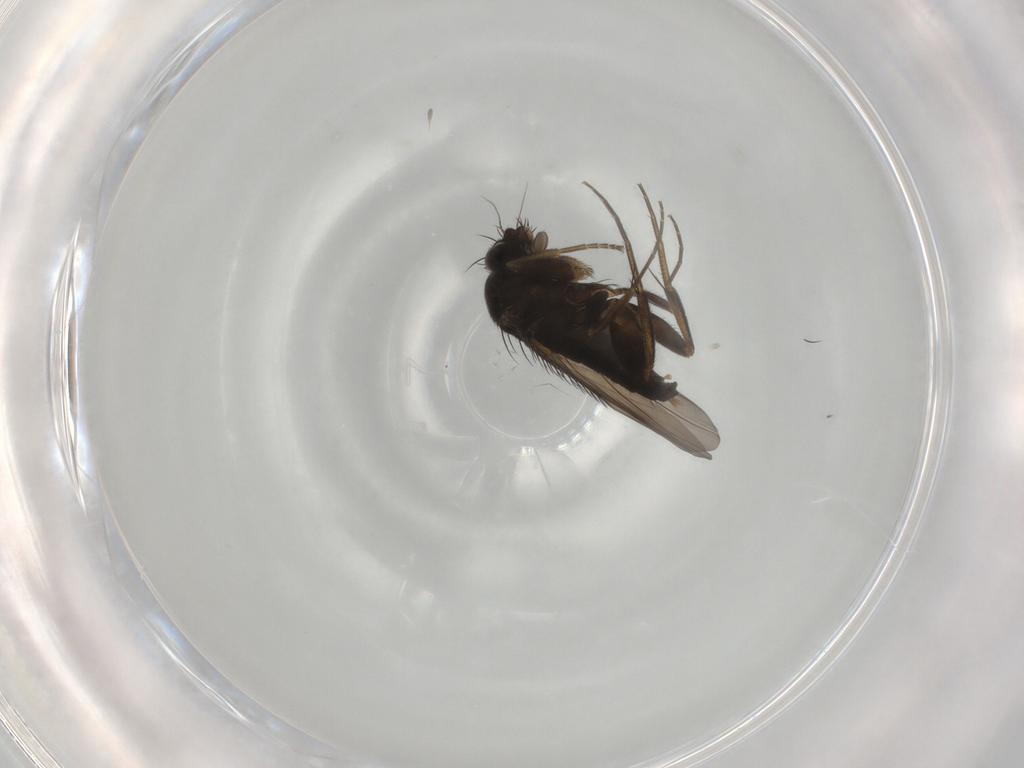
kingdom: Animalia
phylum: Arthropoda
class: Insecta
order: Diptera
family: Phoridae
